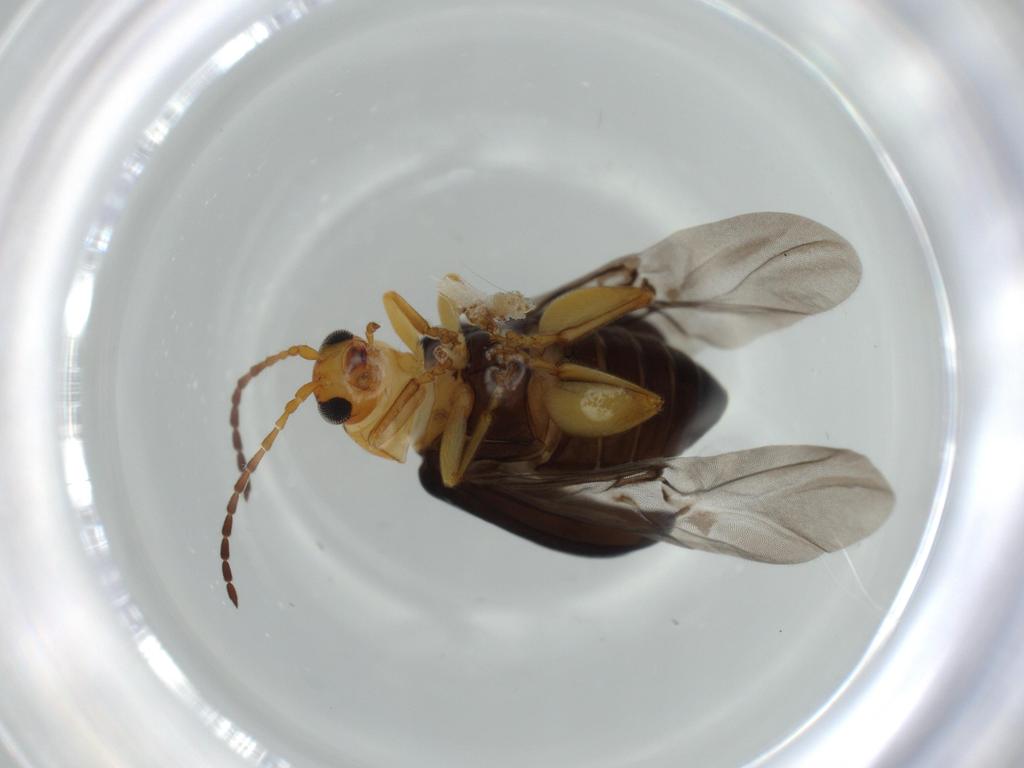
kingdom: Animalia
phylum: Arthropoda
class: Insecta
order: Coleoptera
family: Chrysomelidae
